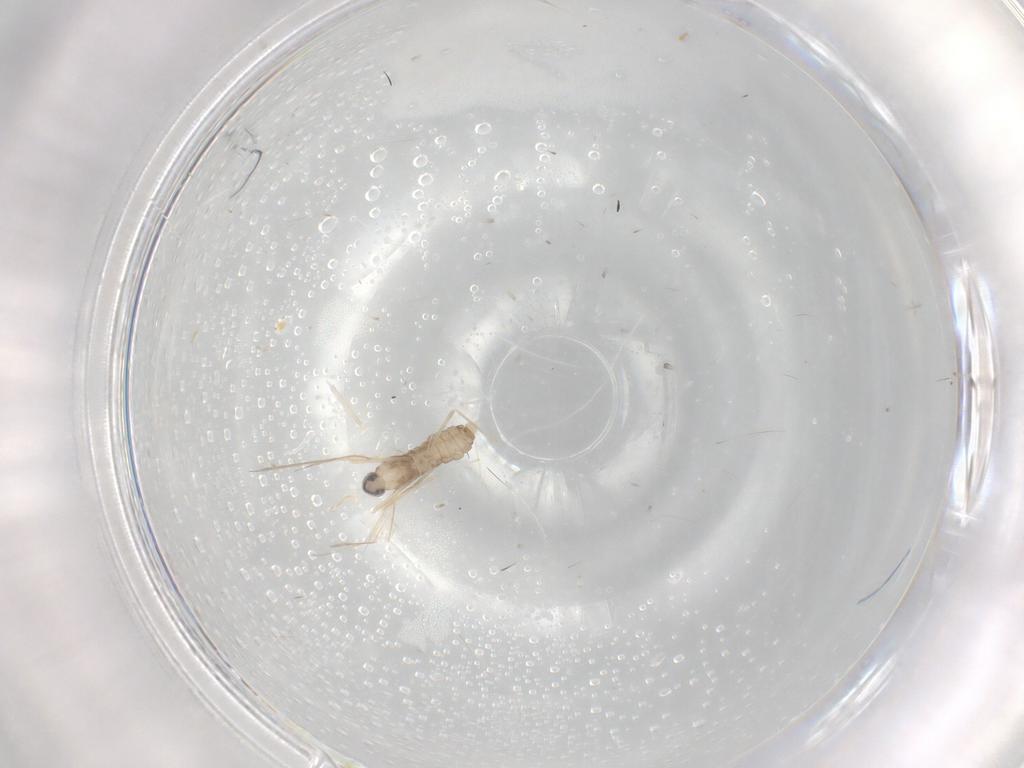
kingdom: Animalia
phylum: Arthropoda
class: Insecta
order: Diptera
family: Cecidomyiidae
